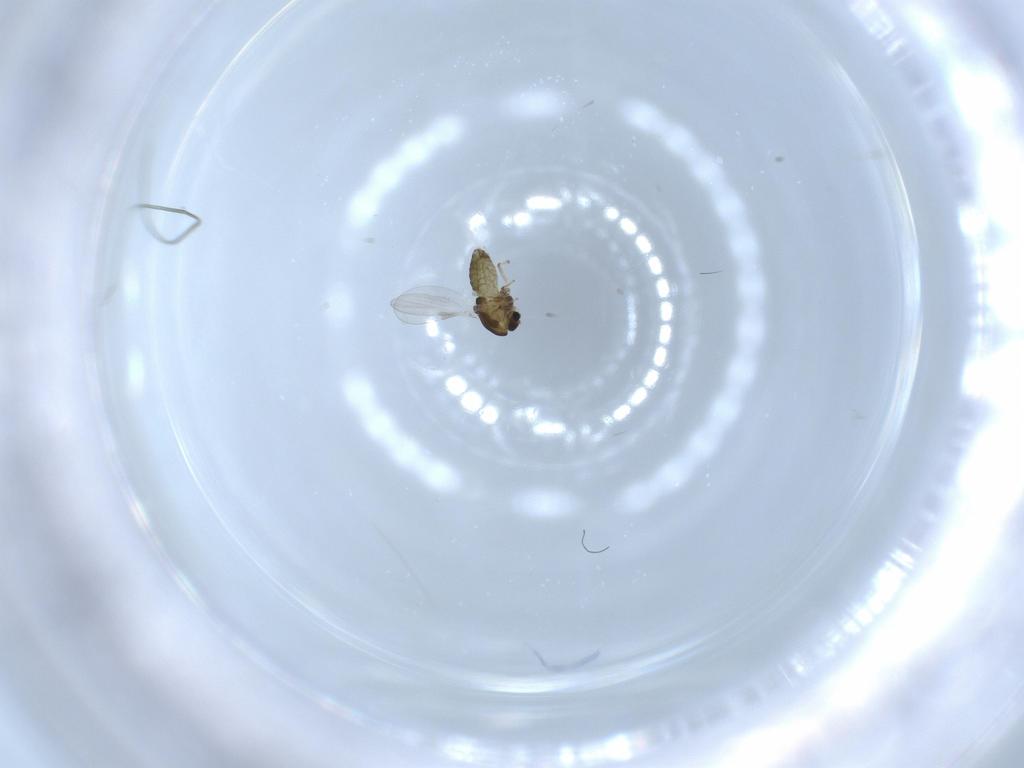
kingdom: Animalia
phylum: Arthropoda
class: Insecta
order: Diptera
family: Chironomidae
